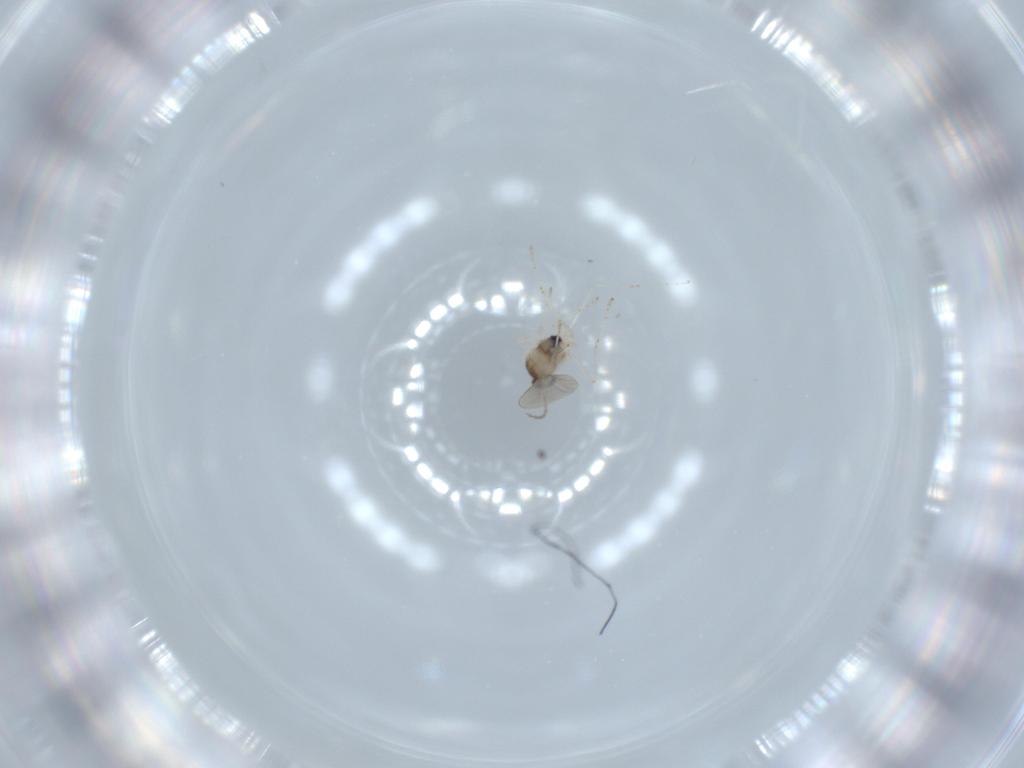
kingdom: Animalia
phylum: Arthropoda
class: Insecta
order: Diptera
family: Cecidomyiidae
